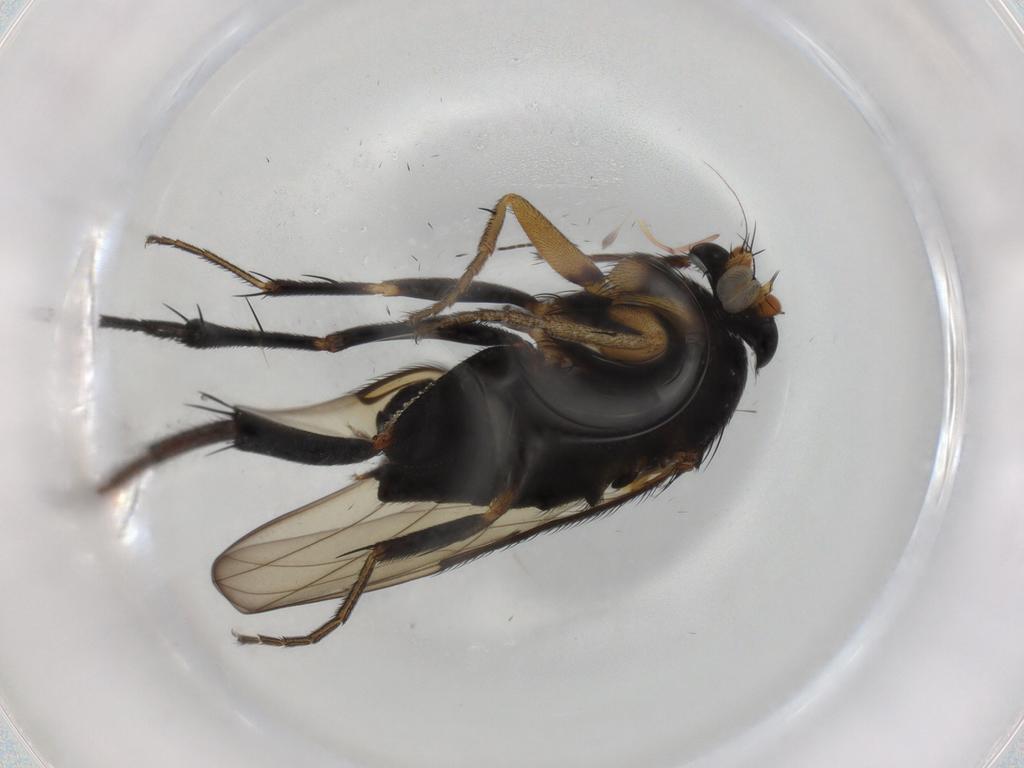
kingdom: Animalia
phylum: Arthropoda
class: Insecta
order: Diptera
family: Phoridae
